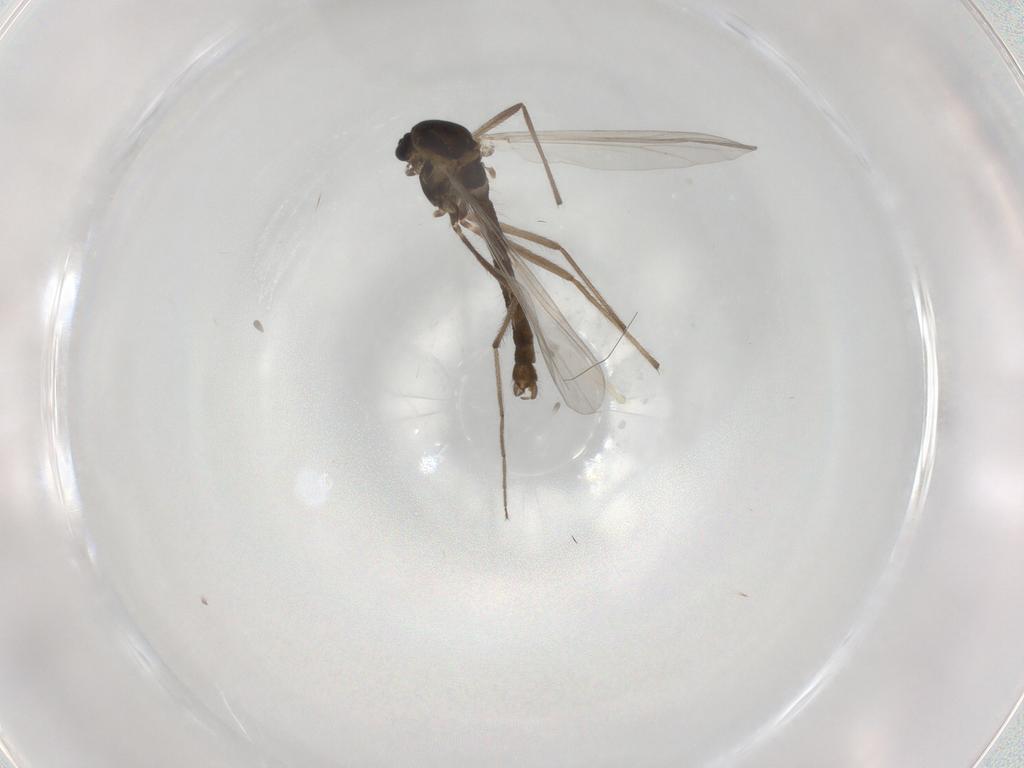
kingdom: Animalia
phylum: Arthropoda
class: Insecta
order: Diptera
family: Chironomidae
